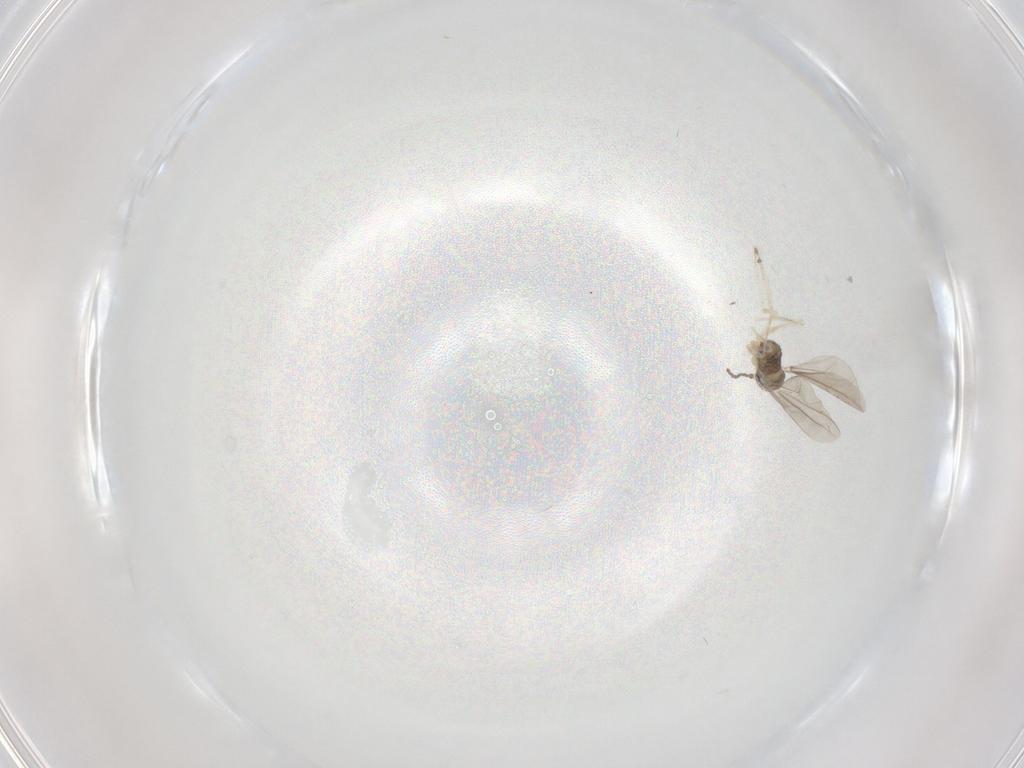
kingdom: Animalia
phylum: Arthropoda
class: Insecta
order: Diptera
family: Cecidomyiidae
